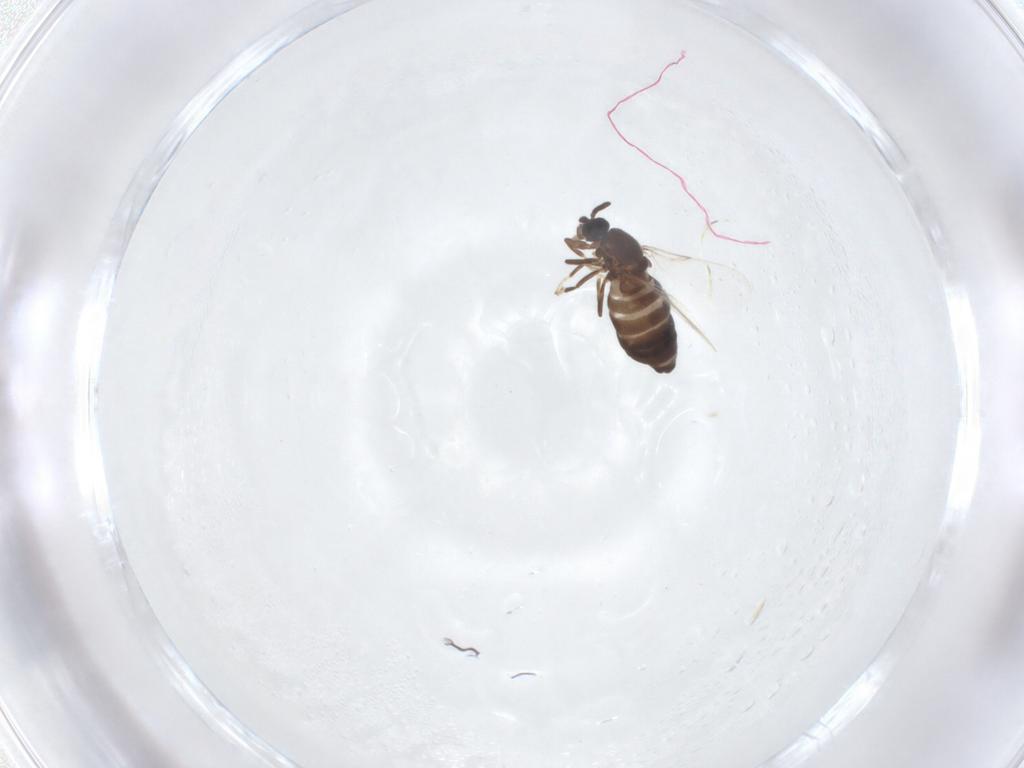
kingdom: Animalia
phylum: Arthropoda
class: Insecta
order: Diptera
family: Scatopsidae
